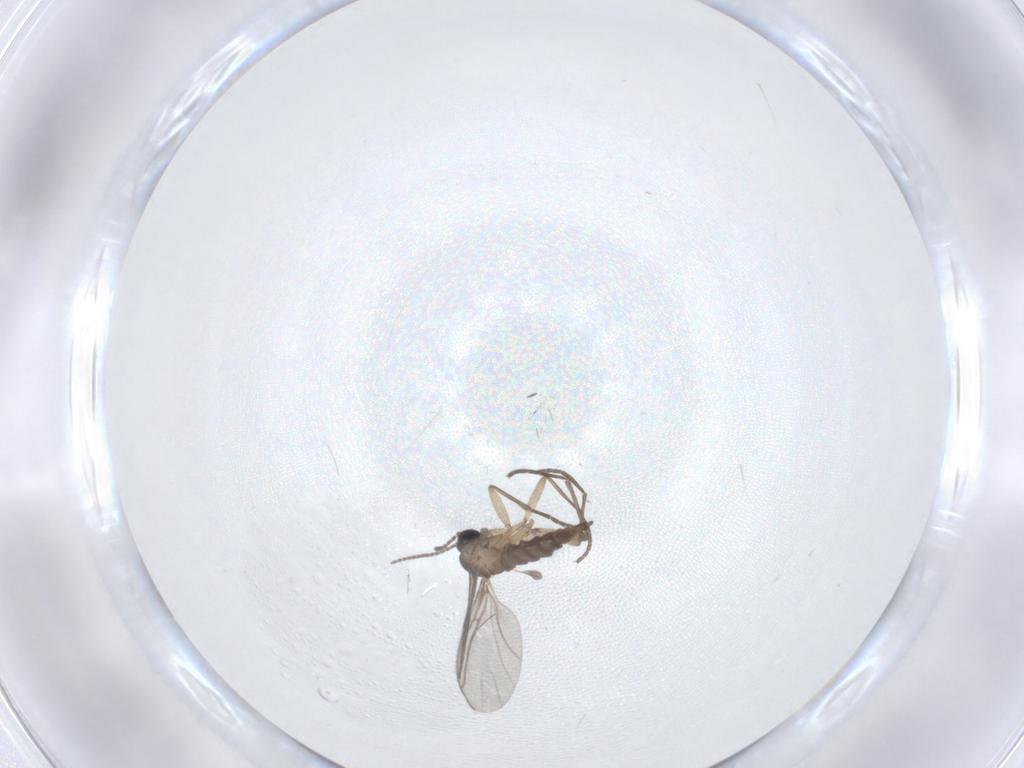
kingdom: Animalia
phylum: Arthropoda
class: Insecta
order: Diptera
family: Sciaridae
